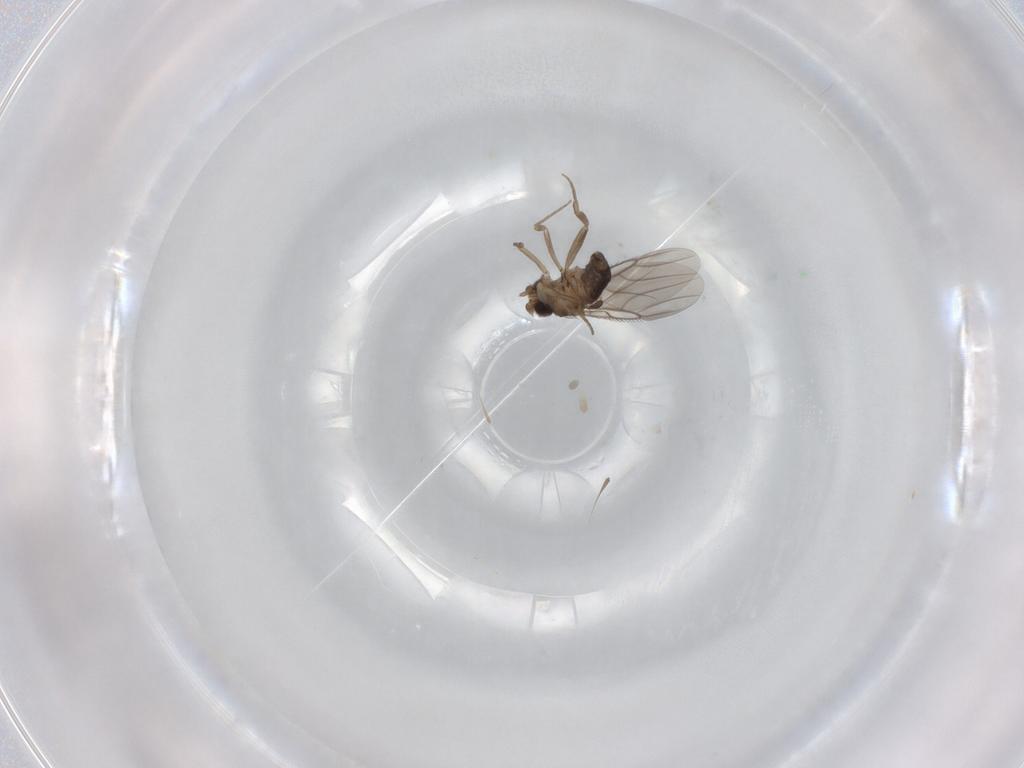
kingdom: Animalia
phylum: Arthropoda
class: Insecta
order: Diptera
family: Phoridae
